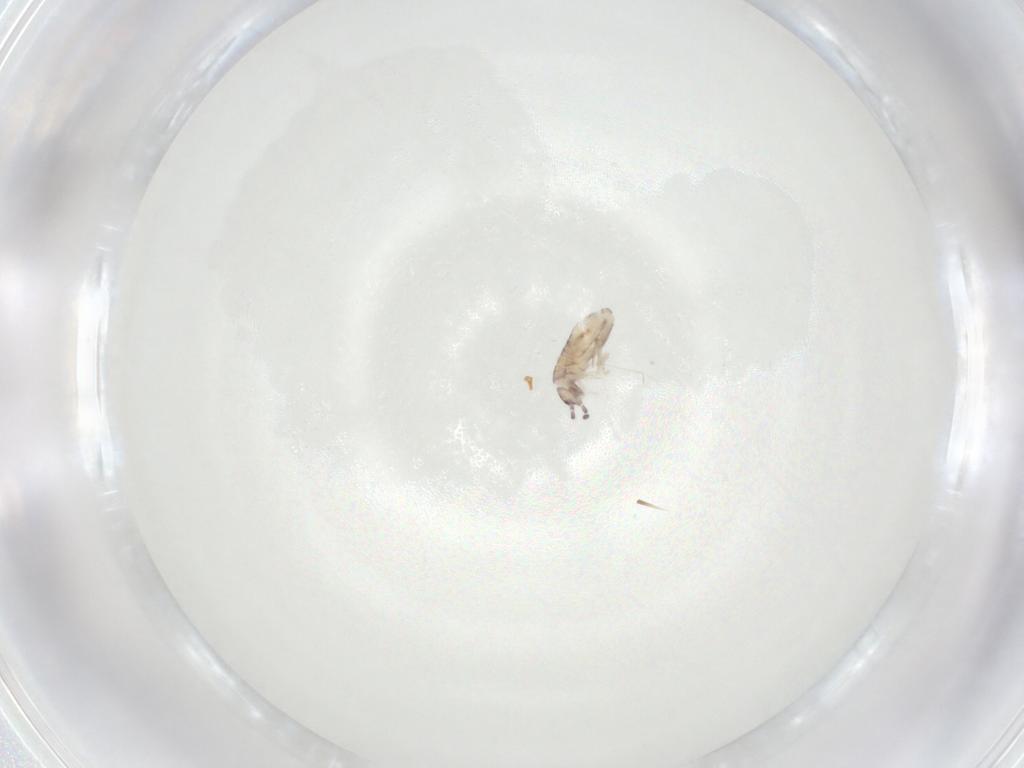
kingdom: Animalia
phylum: Arthropoda
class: Collembola
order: Entomobryomorpha
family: Entomobryidae
